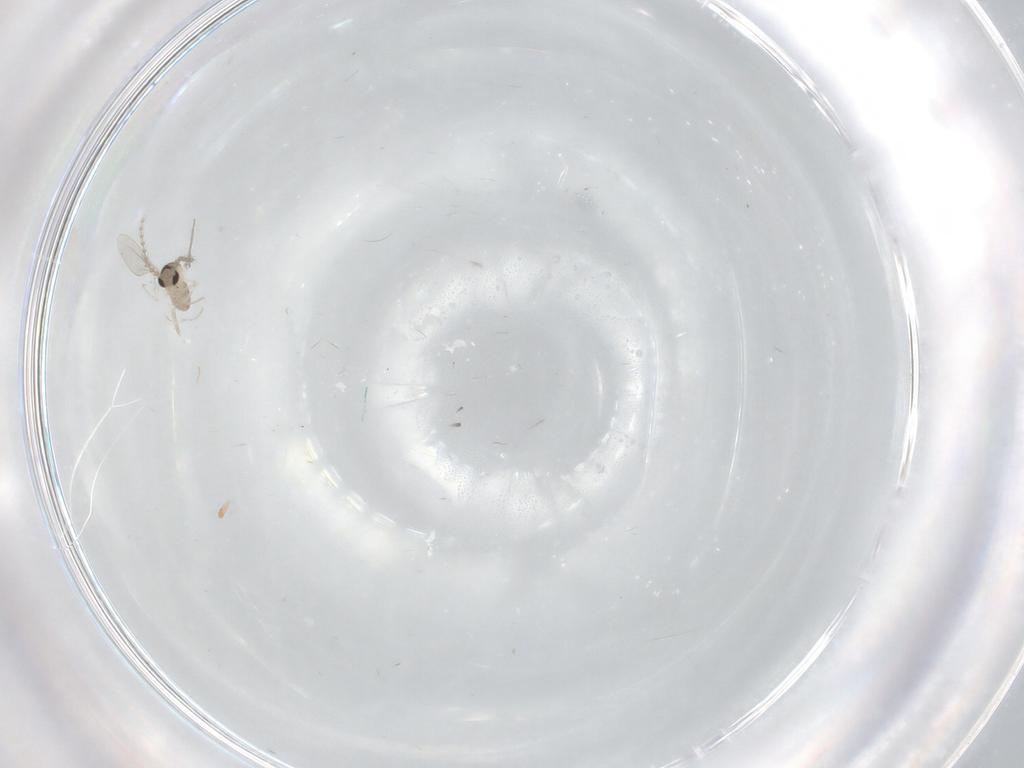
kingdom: Animalia
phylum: Arthropoda
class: Insecta
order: Diptera
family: Cecidomyiidae
